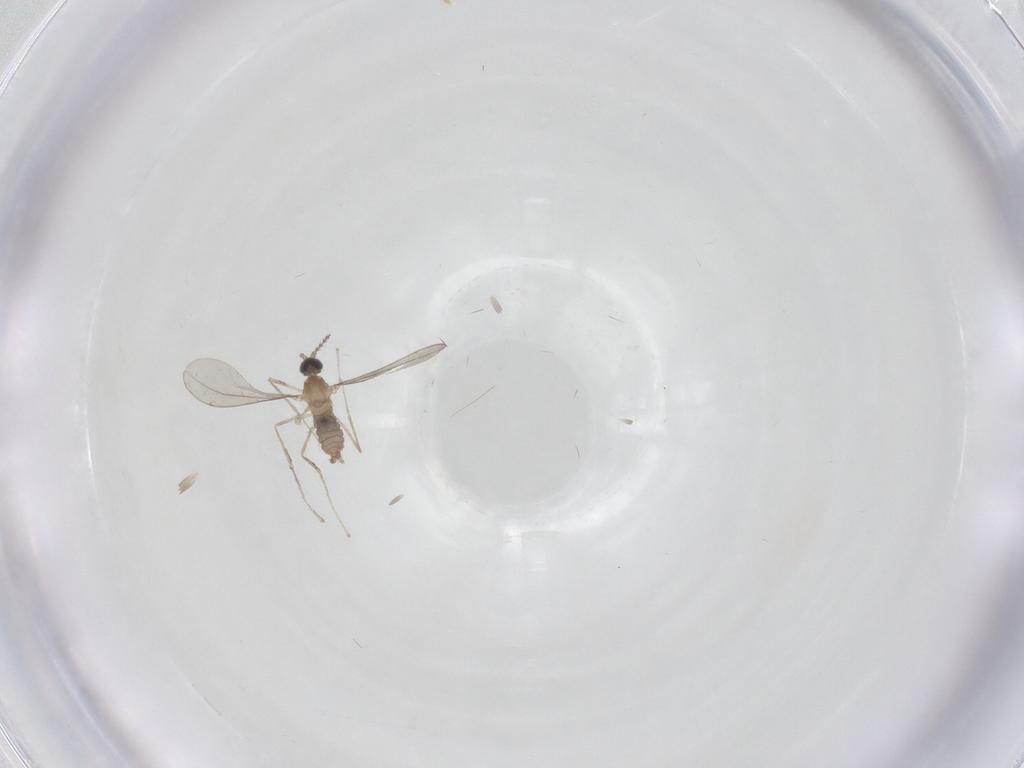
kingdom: Animalia
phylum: Arthropoda
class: Insecta
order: Diptera
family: Cecidomyiidae
